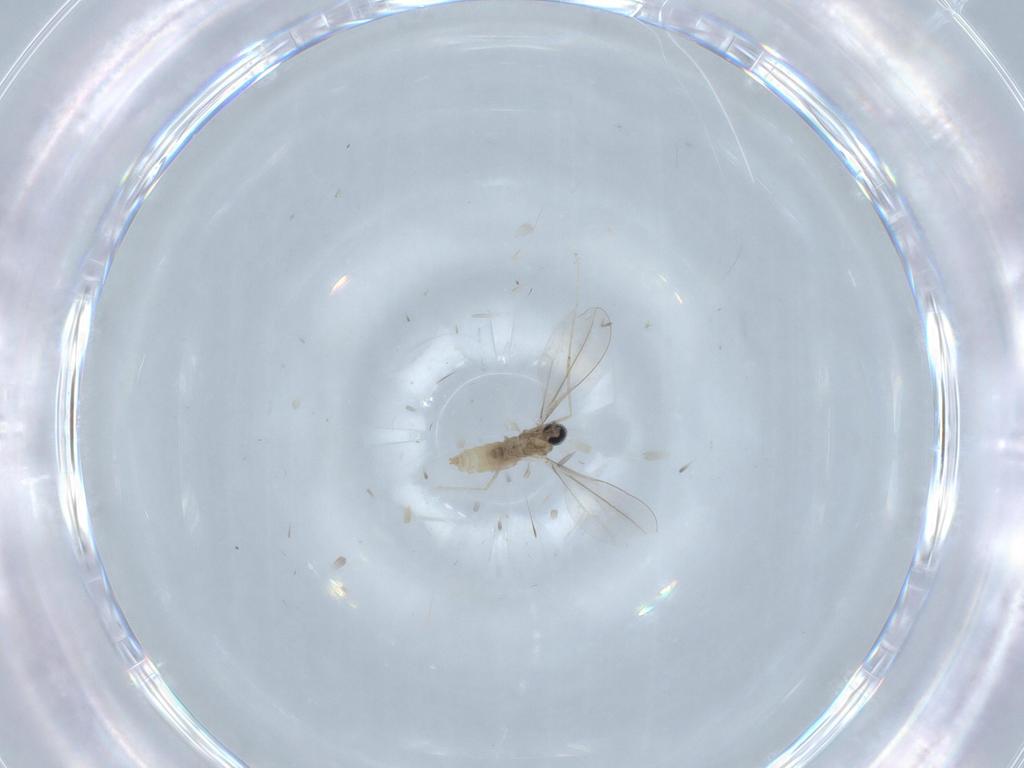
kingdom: Animalia
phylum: Arthropoda
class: Insecta
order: Diptera
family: Cecidomyiidae
